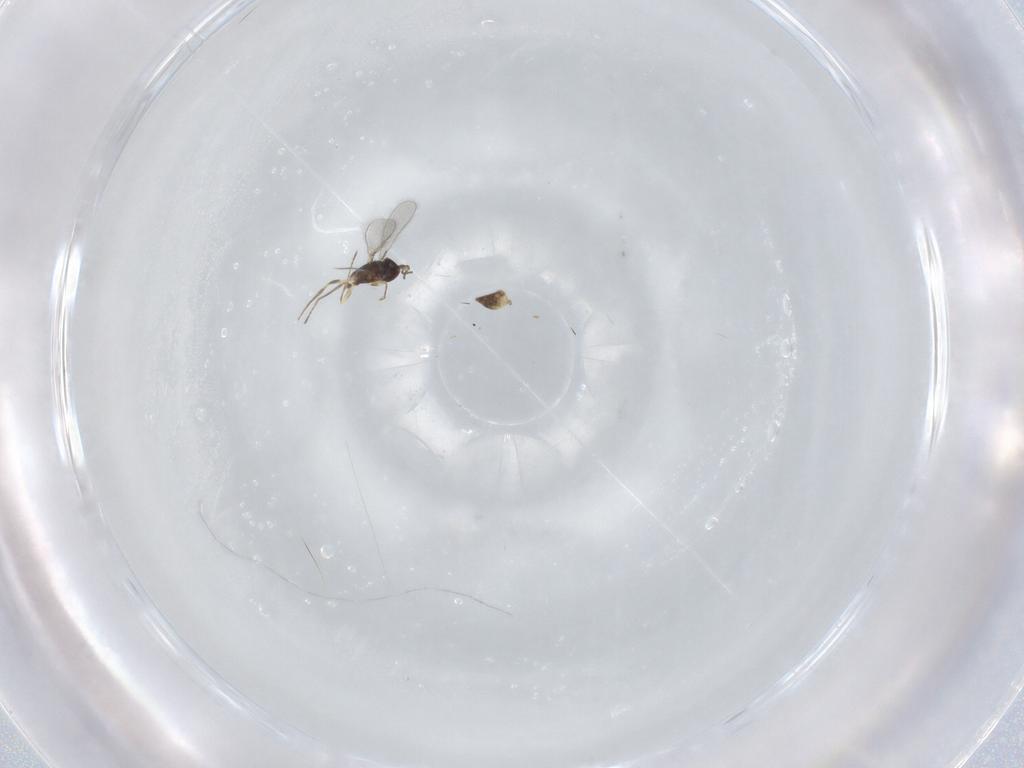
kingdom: Animalia
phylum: Arthropoda
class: Insecta
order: Hymenoptera
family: Mymaridae
